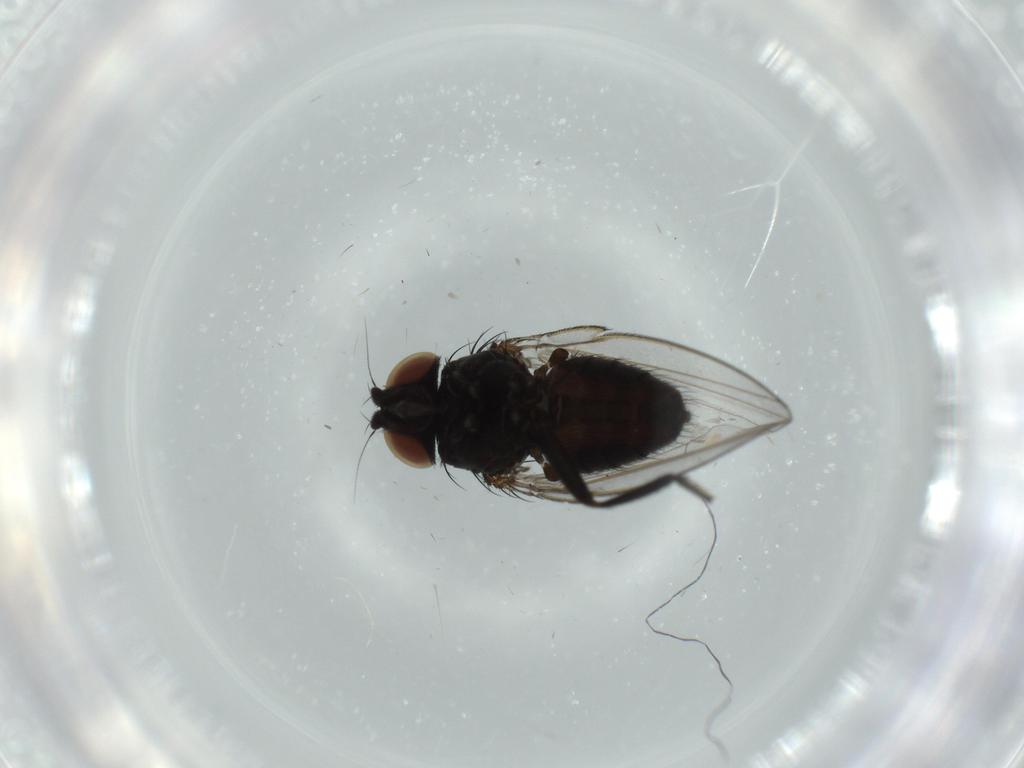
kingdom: Animalia
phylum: Arthropoda
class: Insecta
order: Diptera
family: Milichiidae
